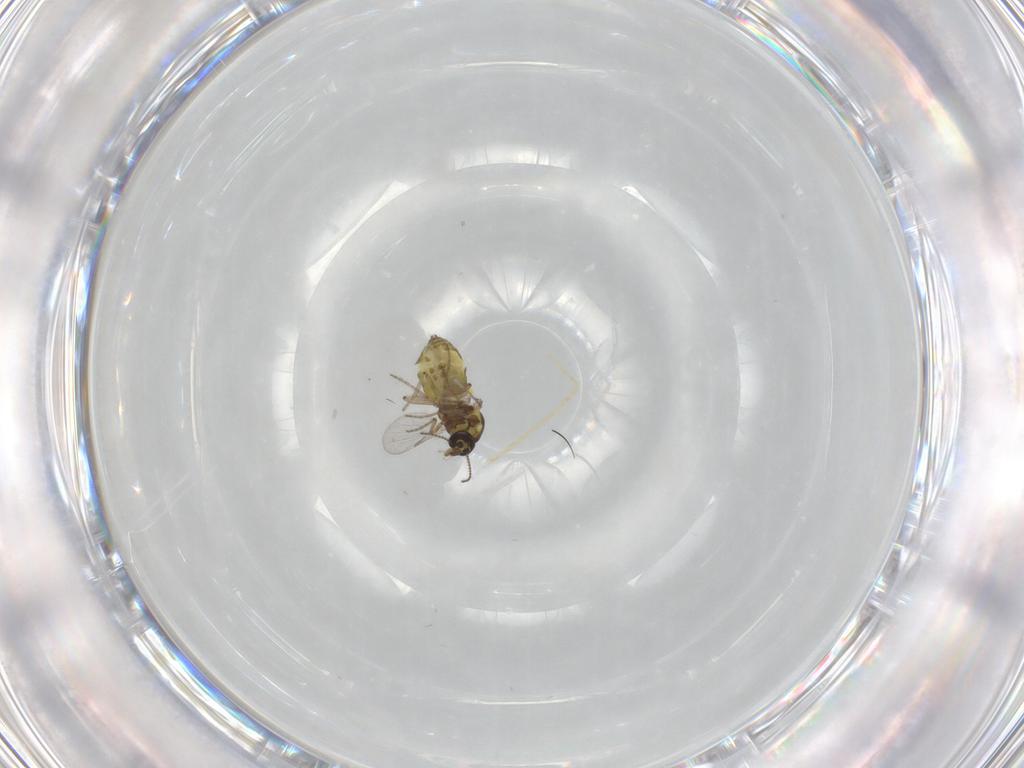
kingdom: Animalia
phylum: Arthropoda
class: Insecta
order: Diptera
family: Ceratopogonidae
